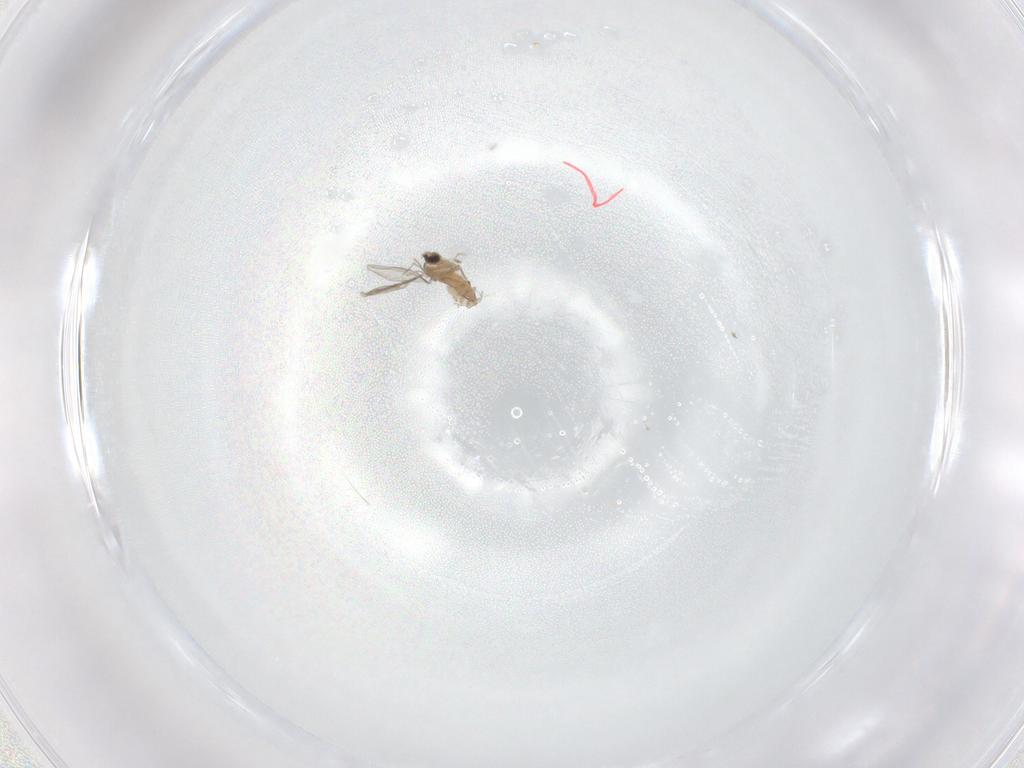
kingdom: Animalia
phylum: Arthropoda
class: Insecta
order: Diptera
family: Cecidomyiidae
